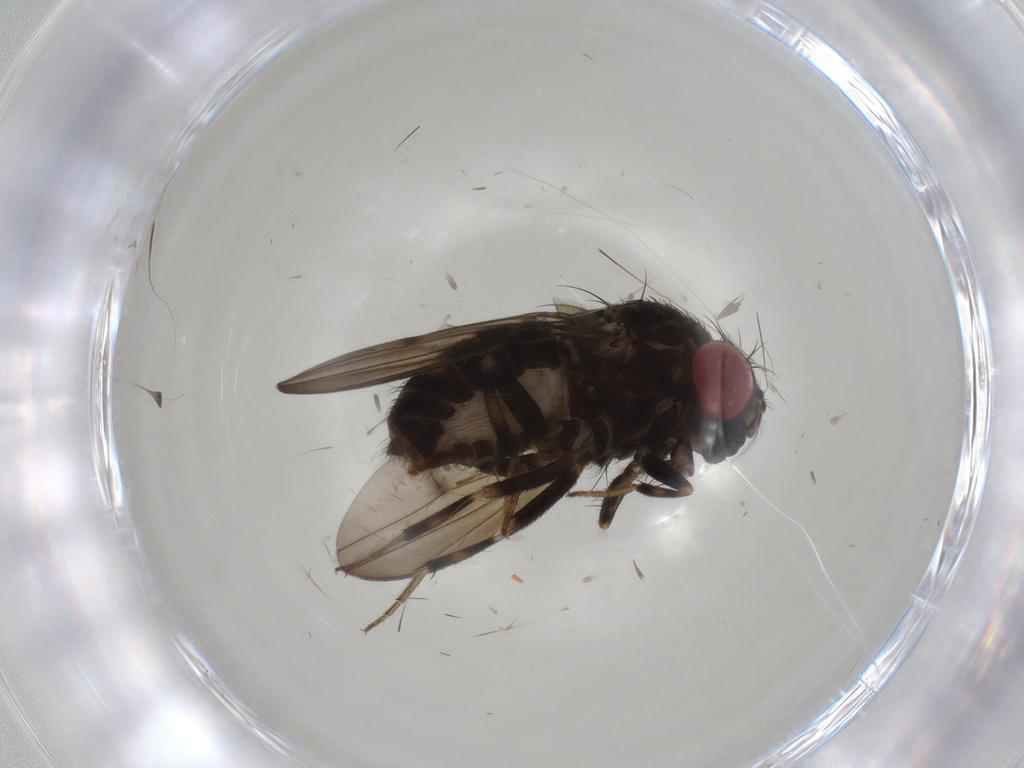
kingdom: Animalia
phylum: Arthropoda
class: Insecta
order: Diptera
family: Drosophilidae
